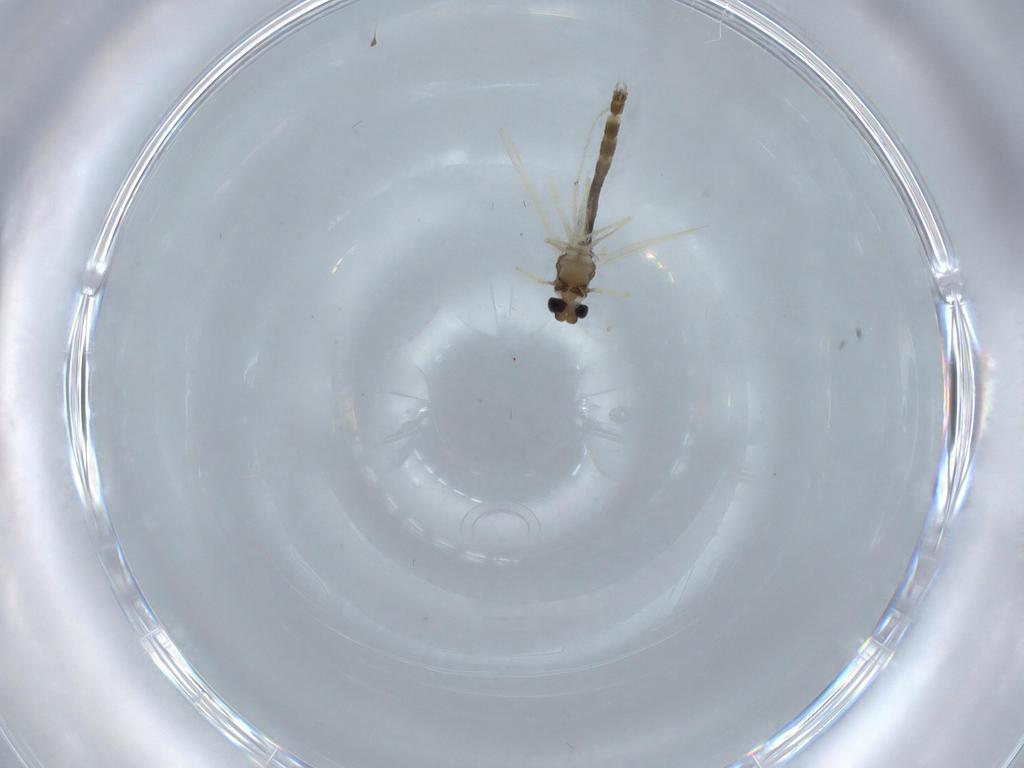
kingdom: Animalia
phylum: Arthropoda
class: Insecta
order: Diptera
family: Chironomidae
